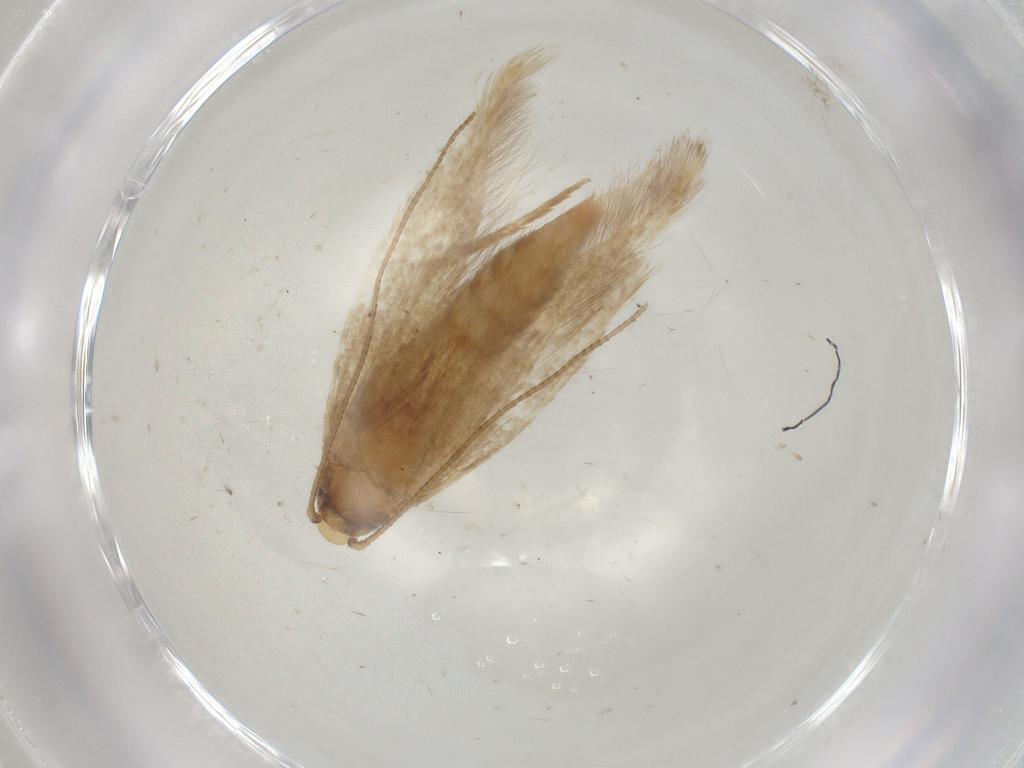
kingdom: Animalia
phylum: Arthropoda
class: Insecta
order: Lepidoptera
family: Tineidae
